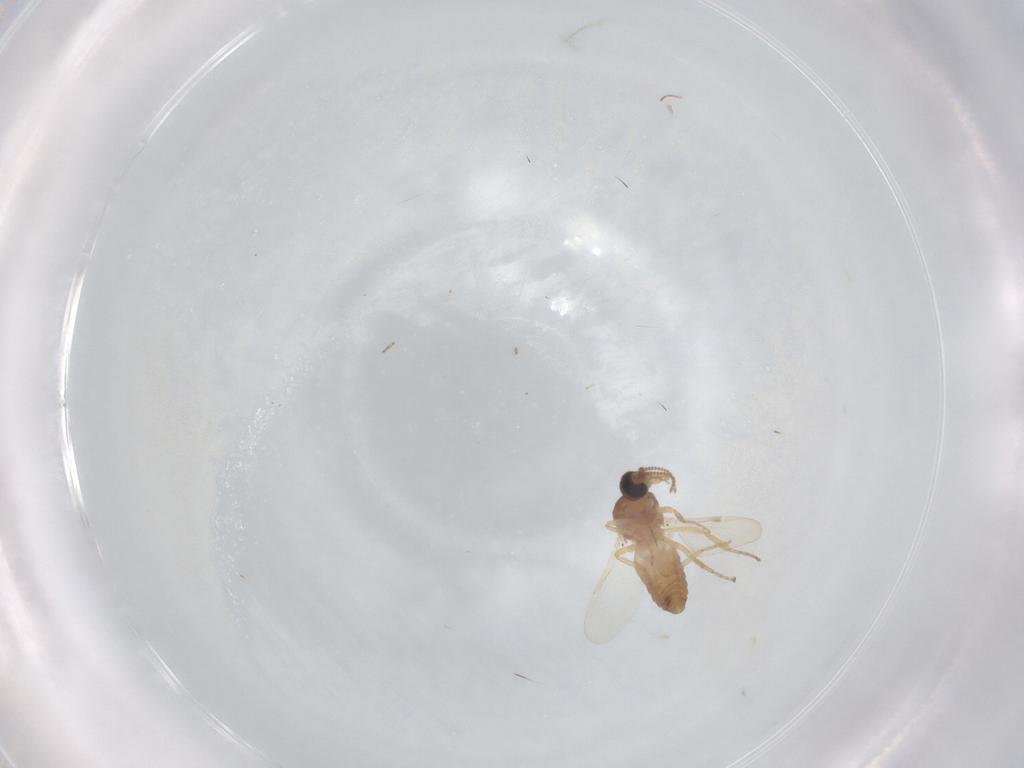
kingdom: Animalia
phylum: Arthropoda
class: Insecta
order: Diptera
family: Ceratopogonidae
